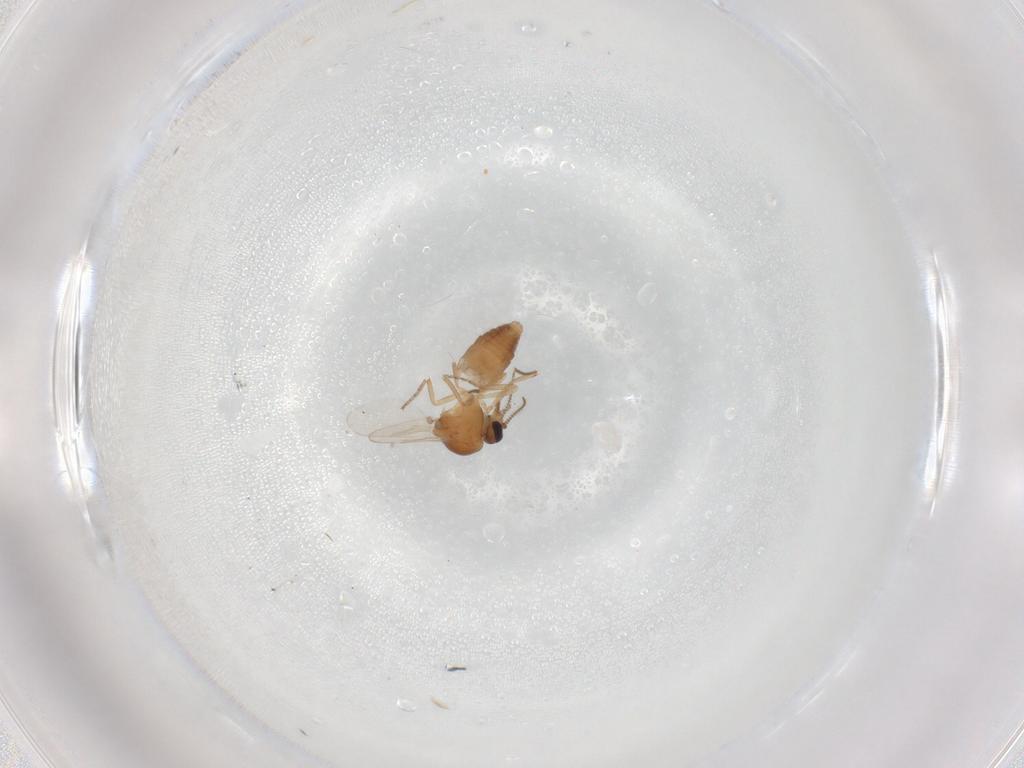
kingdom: Animalia
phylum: Arthropoda
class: Insecta
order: Diptera
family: Ceratopogonidae
